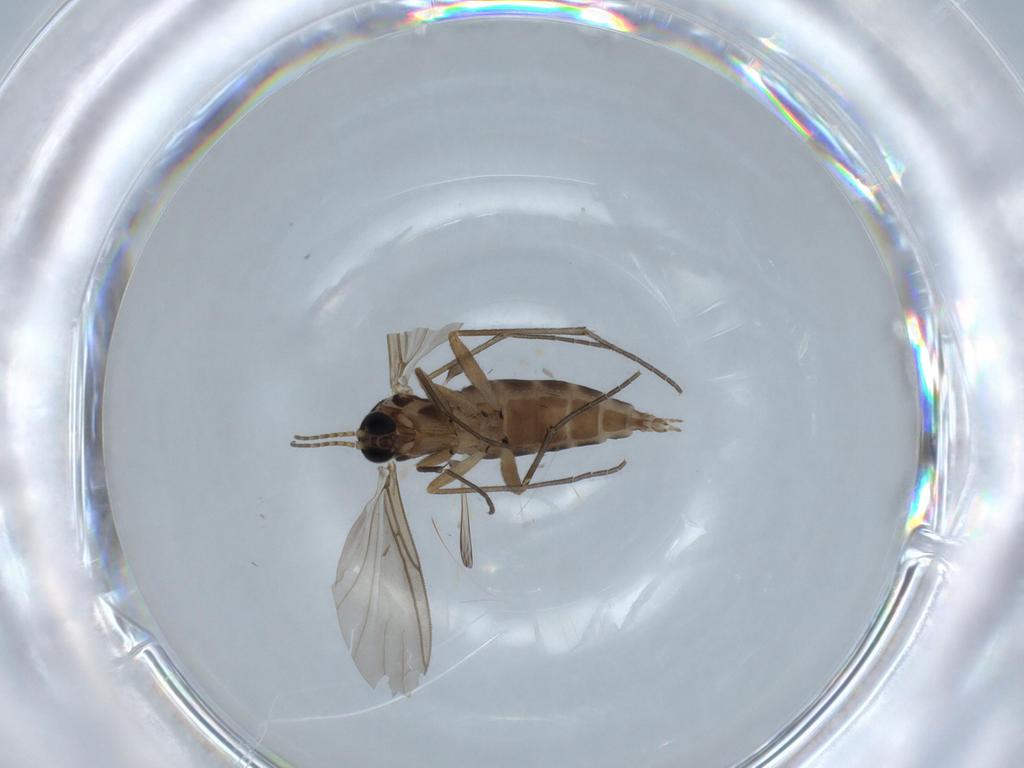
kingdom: Animalia
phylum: Arthropoda
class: Insecta
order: Diptera
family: Sciaridae
